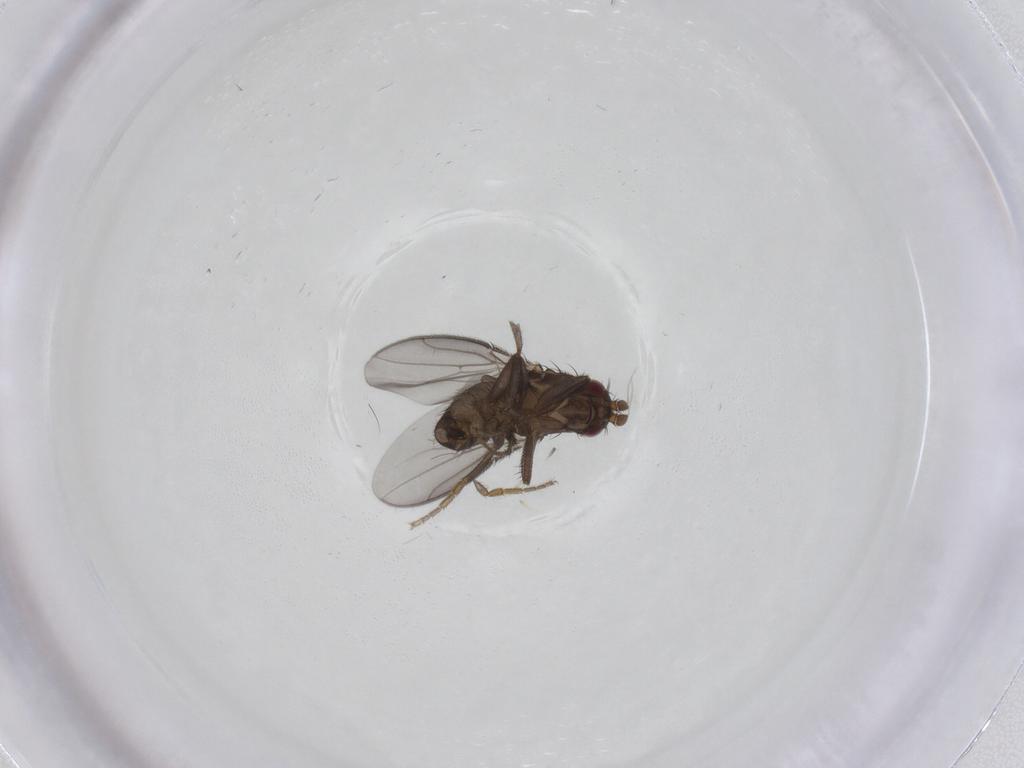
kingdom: Animalia
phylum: Arthropoda
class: Insecta
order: Diptera
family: Sphaeroceridae
